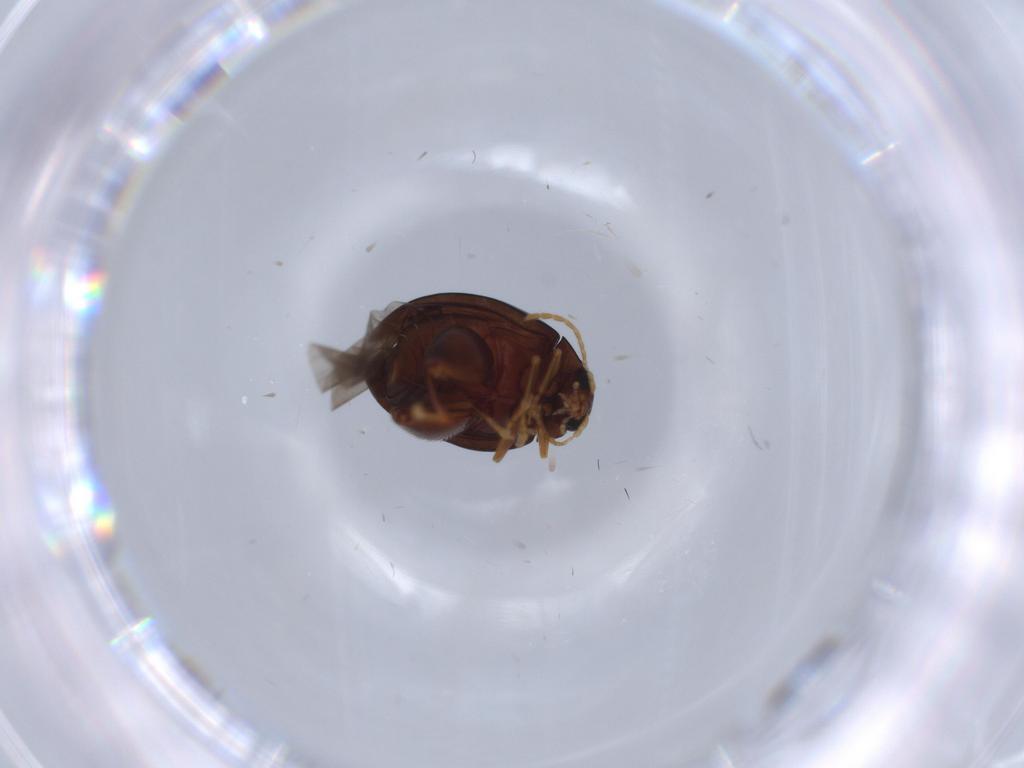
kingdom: Animalia
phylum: Arthropoda
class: Insecta
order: Coleoptera
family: Chrysomelidae
